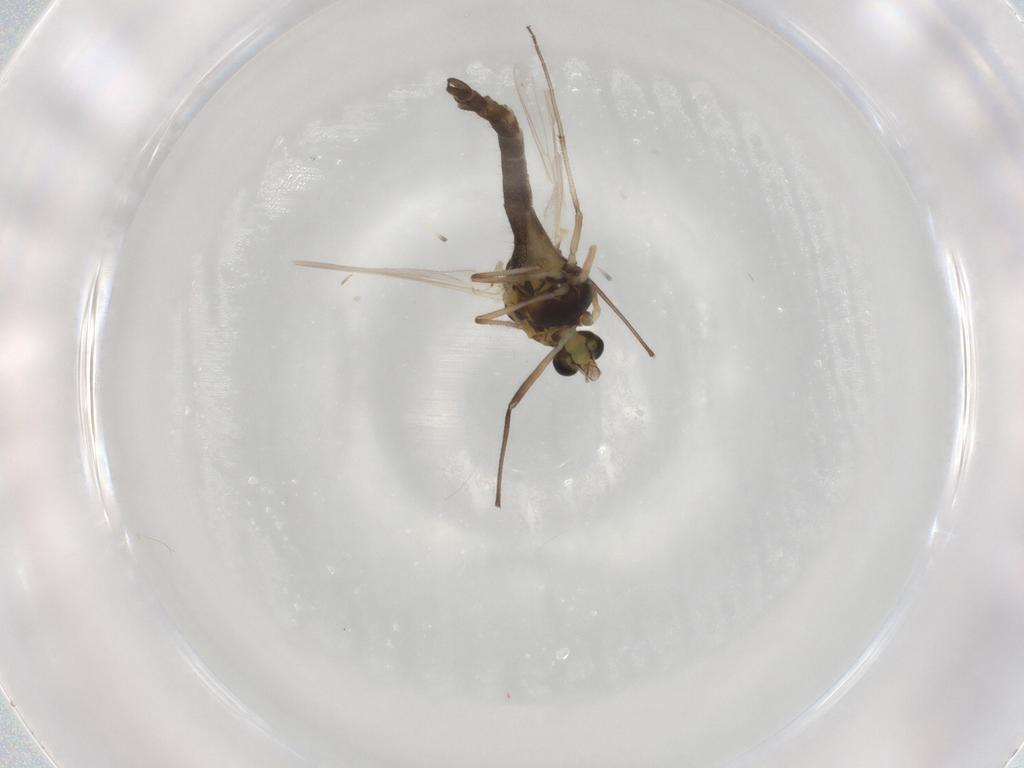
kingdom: Animalia
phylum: Arthropoda
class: Insecta
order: Diptera
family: Chironomidae
